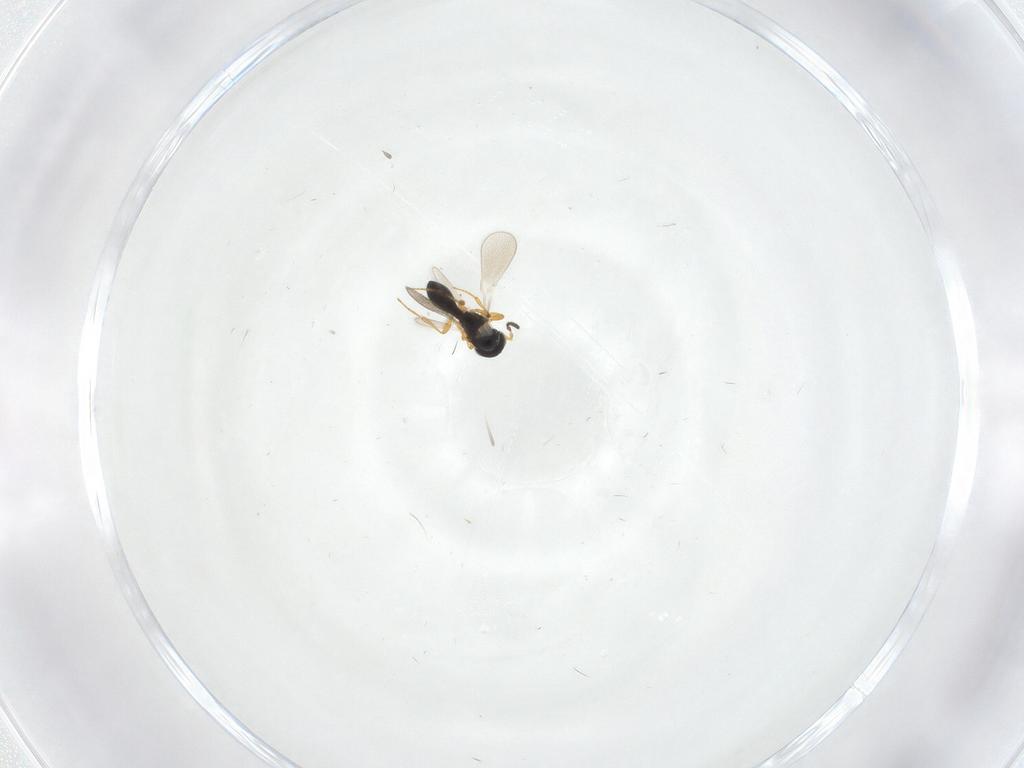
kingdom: Animalia
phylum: Arthropoda
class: Insecta
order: Hymenoptera
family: Platygastridae
